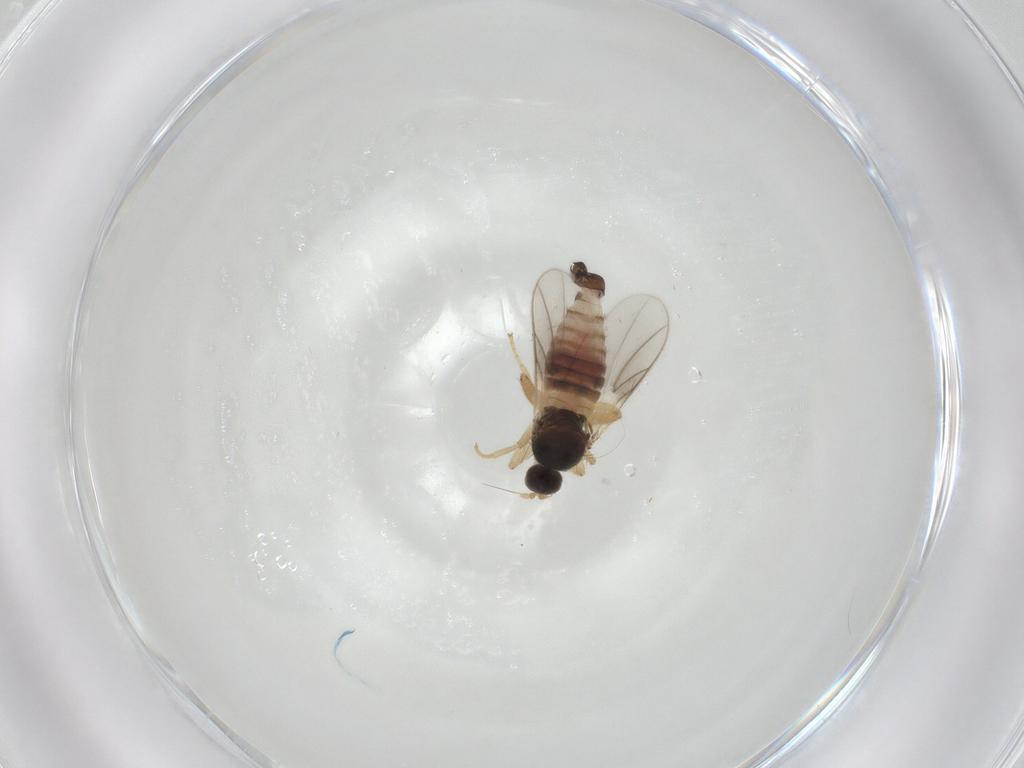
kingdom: Animalia
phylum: Arthropoda
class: Insecta
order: Diptera
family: Hybotidae
